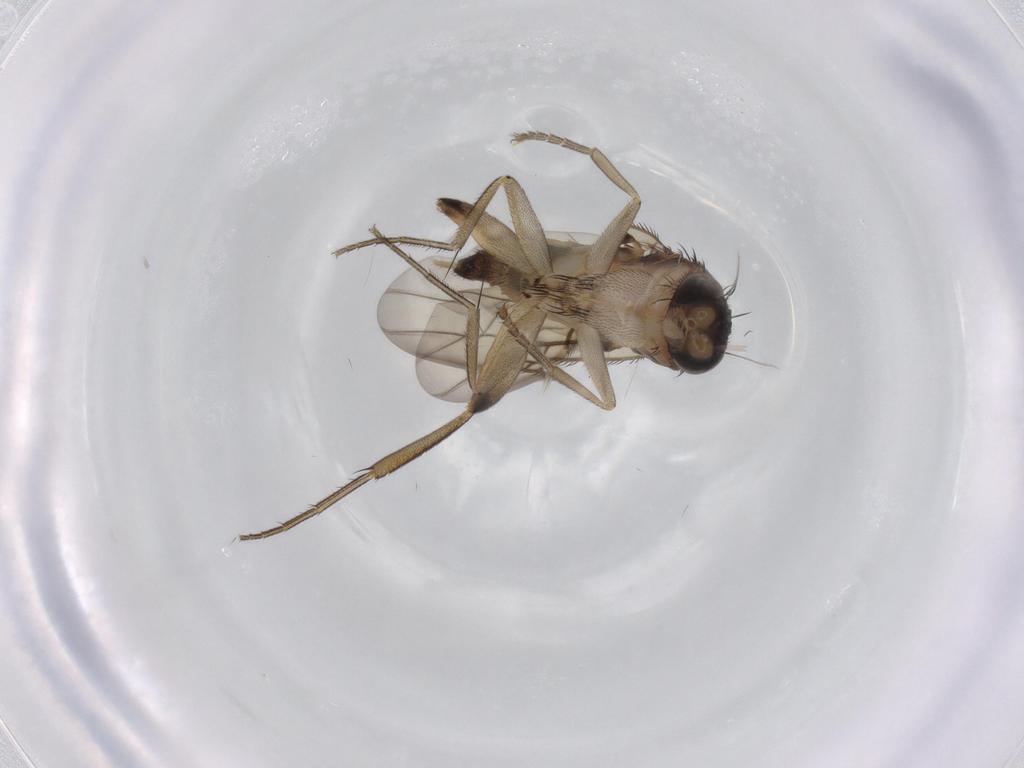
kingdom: Animalia
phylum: Arthropoda
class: Insecta
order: Diptera
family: Phoridae
